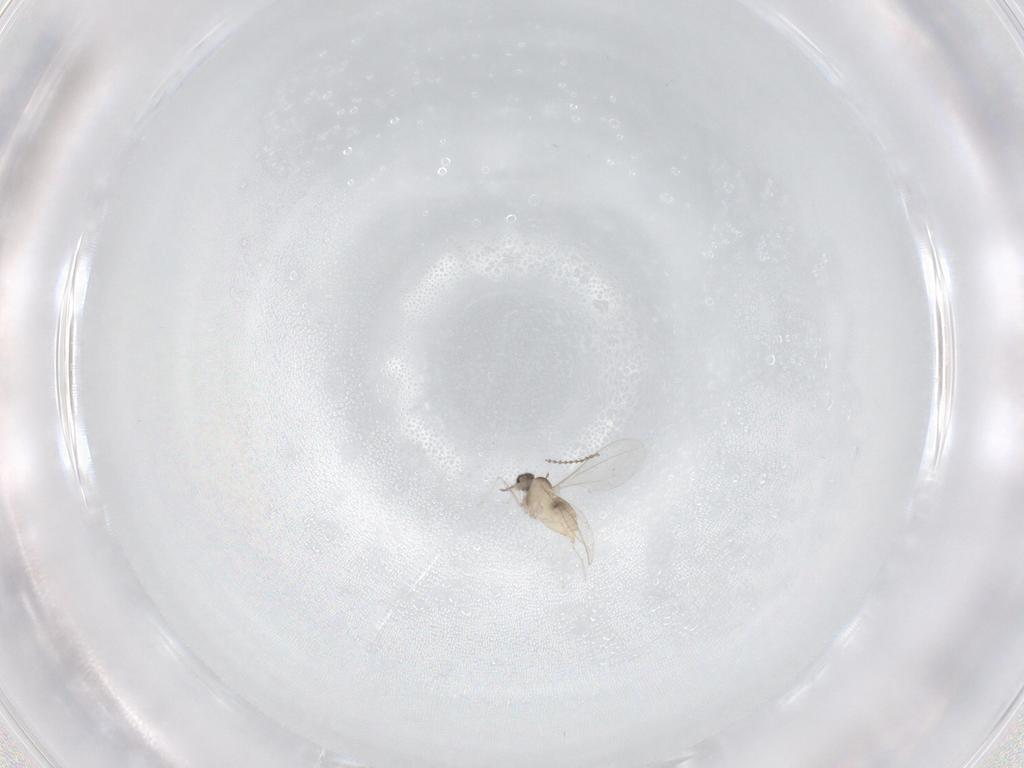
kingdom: Animalia
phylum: Arthropoda
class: Insecta
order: Diptera
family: Cecidomyiidae
